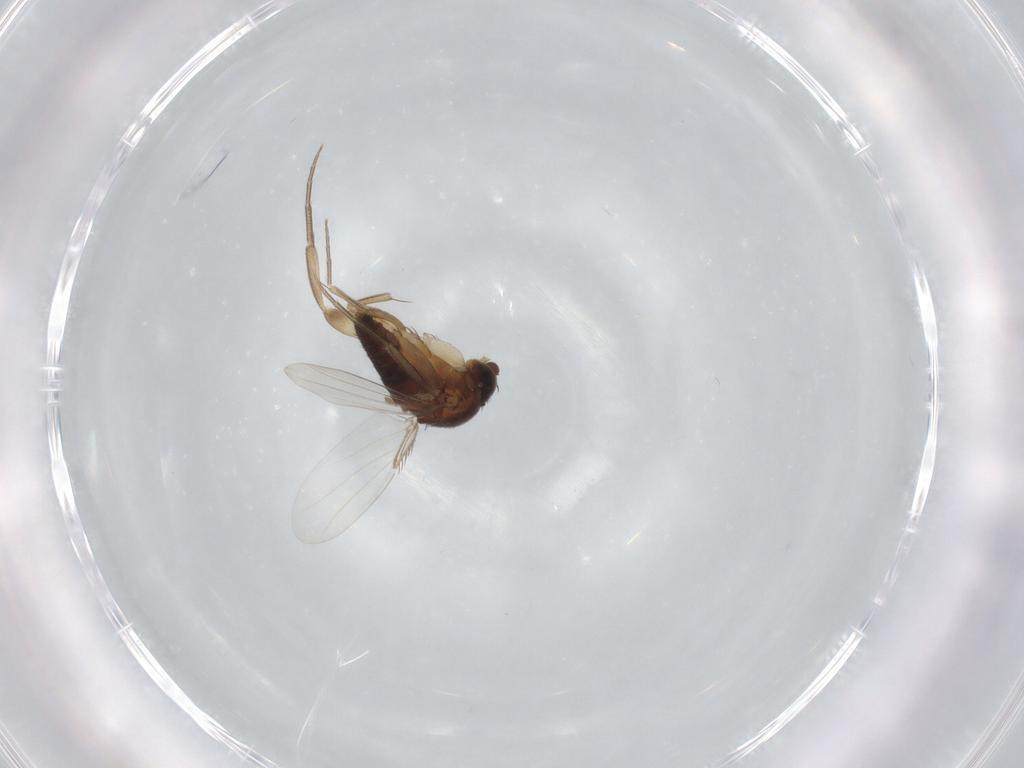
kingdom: Animalia
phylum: Arthropoda
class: Insecta
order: Diptera
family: Phoridae
